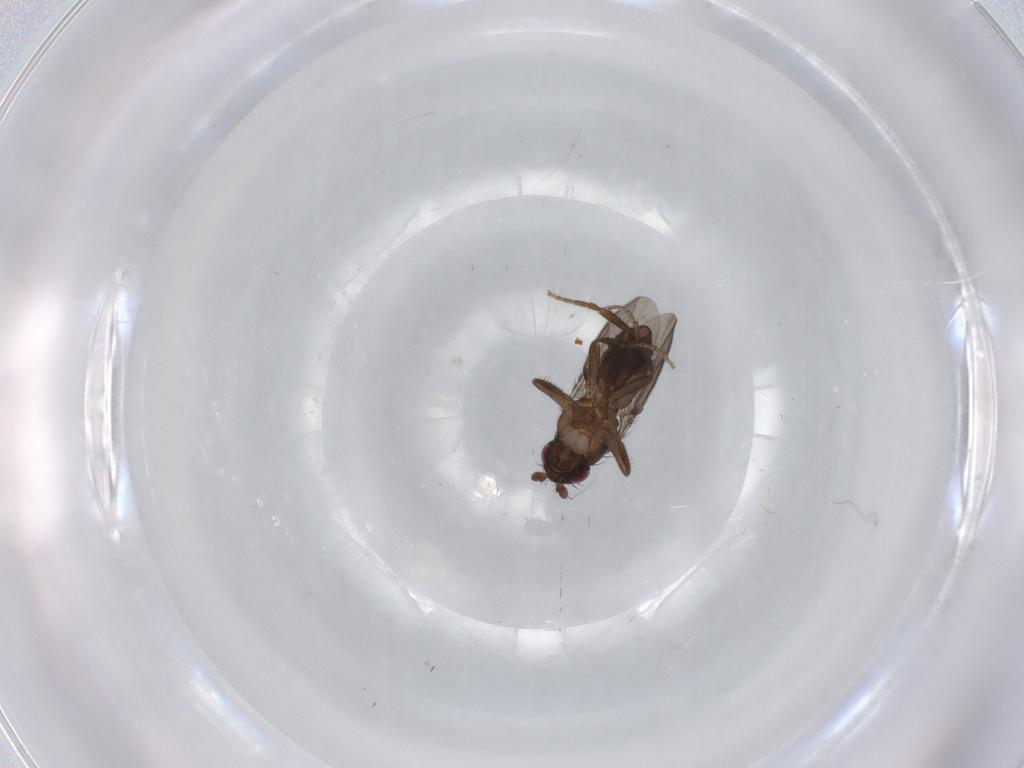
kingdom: Animalia
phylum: Arthropoda
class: Insecta
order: Diptera
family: Sphaeroceridae
